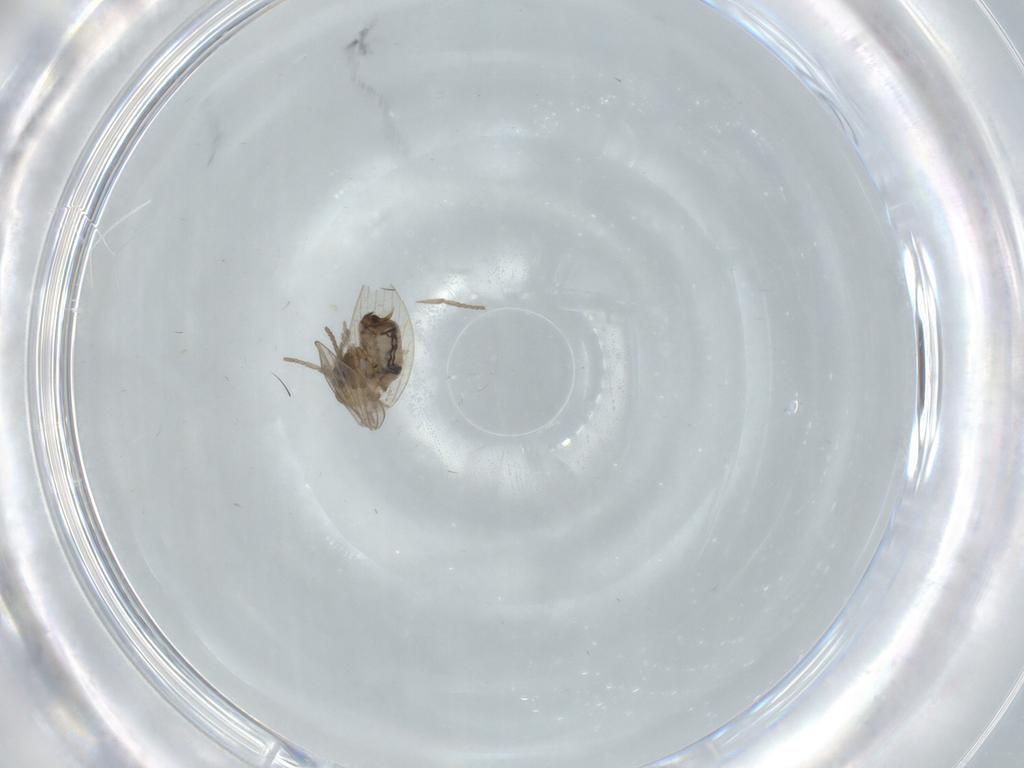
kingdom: Animalia
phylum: Arthropoda
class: Insecta
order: Diptera
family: Psychodidae
